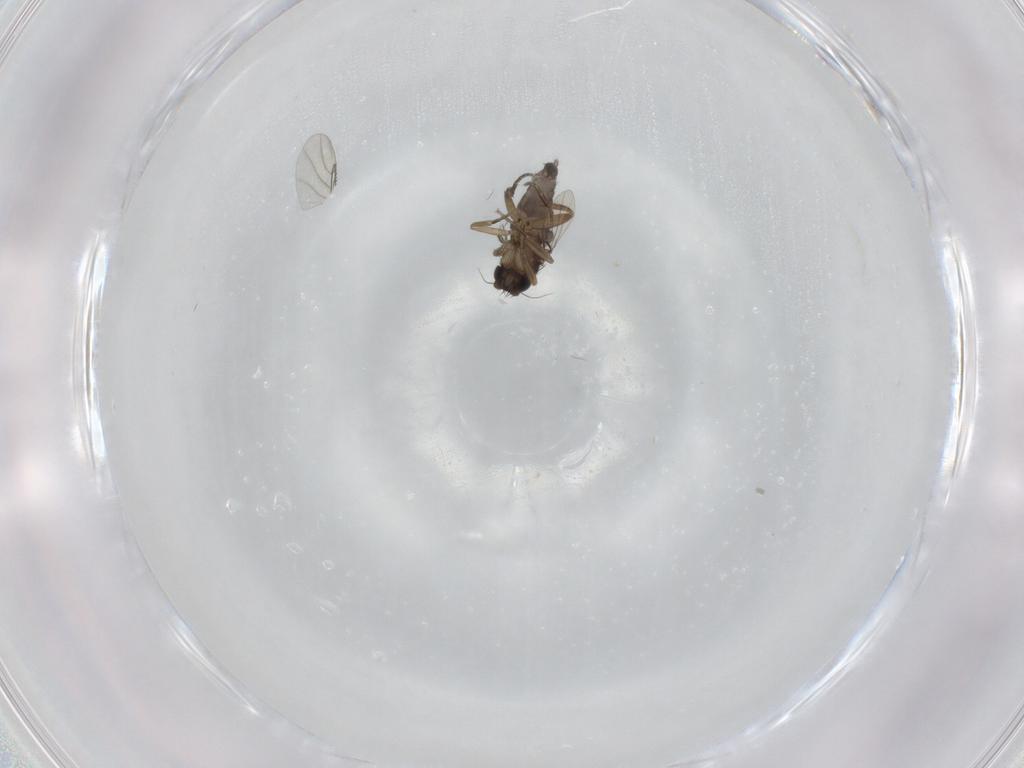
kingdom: Animalia
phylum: Arthropoda
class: Insecta
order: Diptera
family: Phoridae
